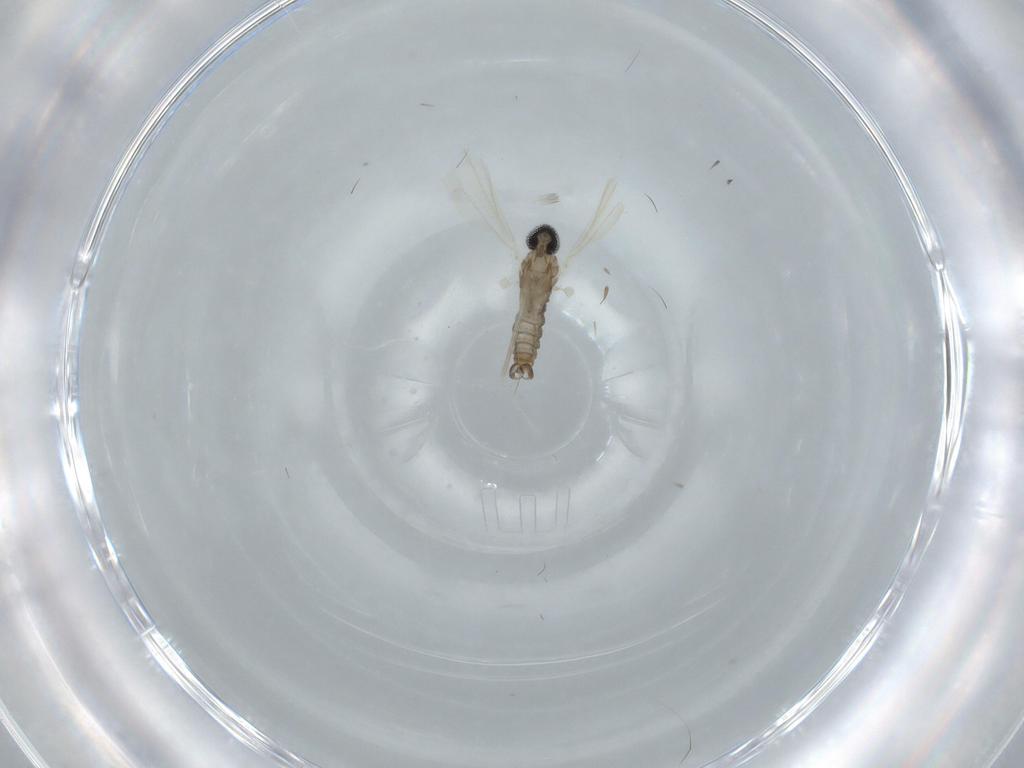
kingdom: Animalia
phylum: Arthropoda
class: Insecta
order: Diptera
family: Cecidomyiidae
